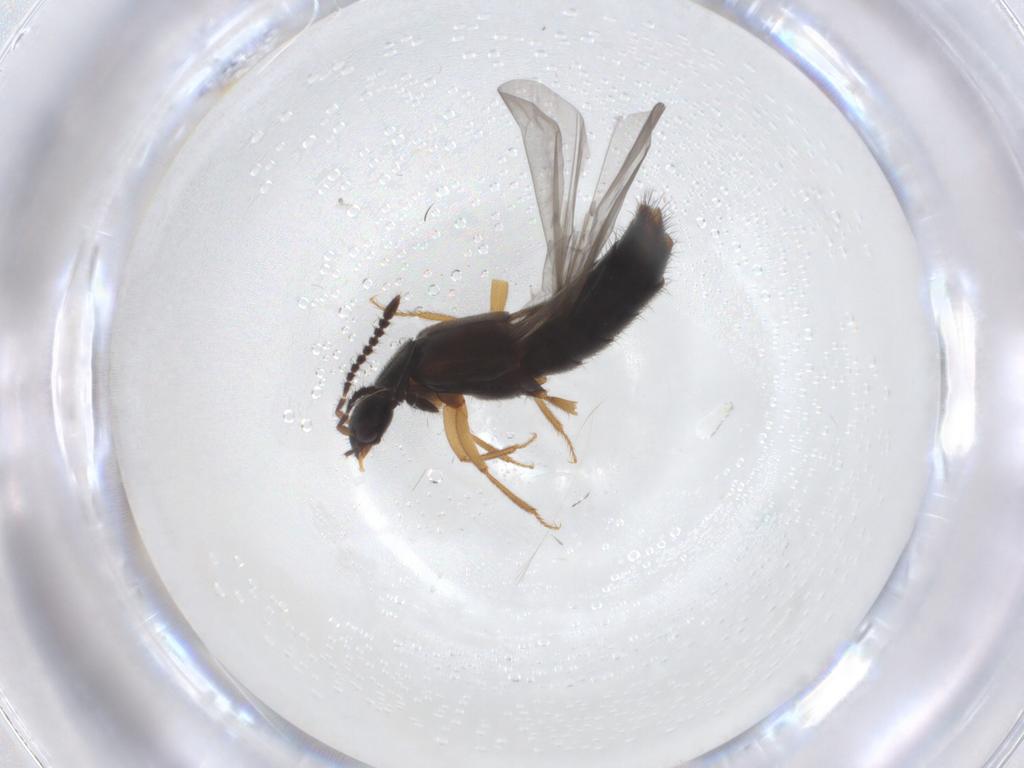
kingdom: Animalia
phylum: Arthropoda
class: Insecta
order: Coleoptera
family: Staphylinidae
